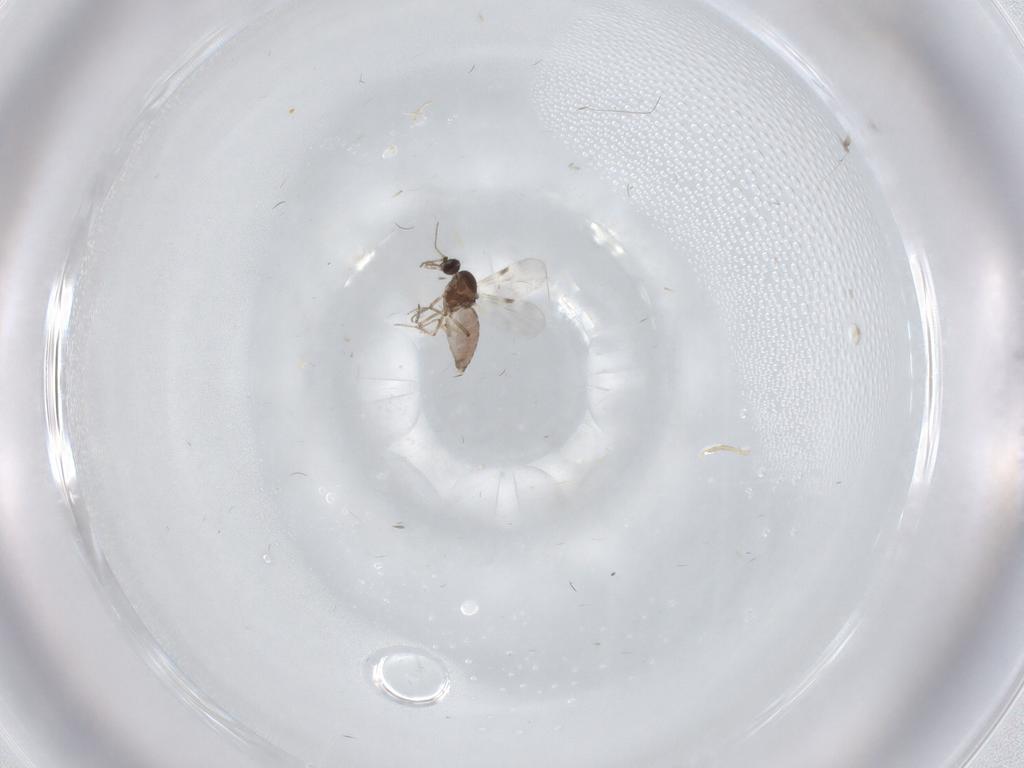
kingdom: Animalia
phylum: Arthropoda
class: Insecta
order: Diptera
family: Chironomidae
